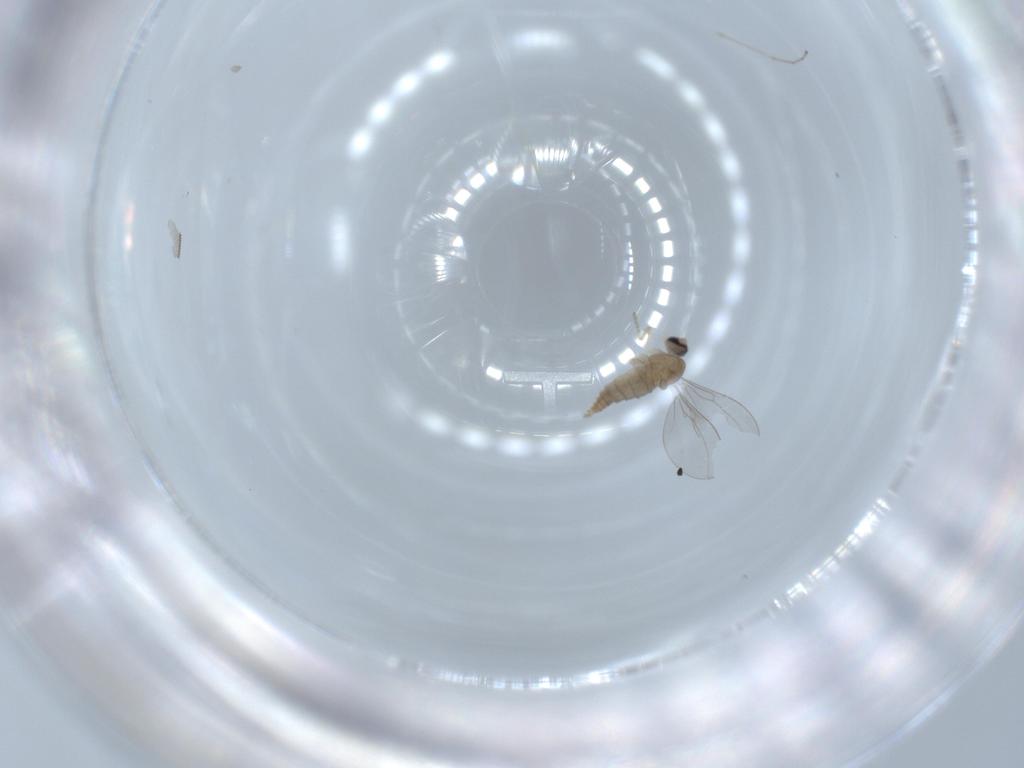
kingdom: Animalia
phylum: Arthropoda
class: Insecta
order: Diptera
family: Cecidomyiidae
